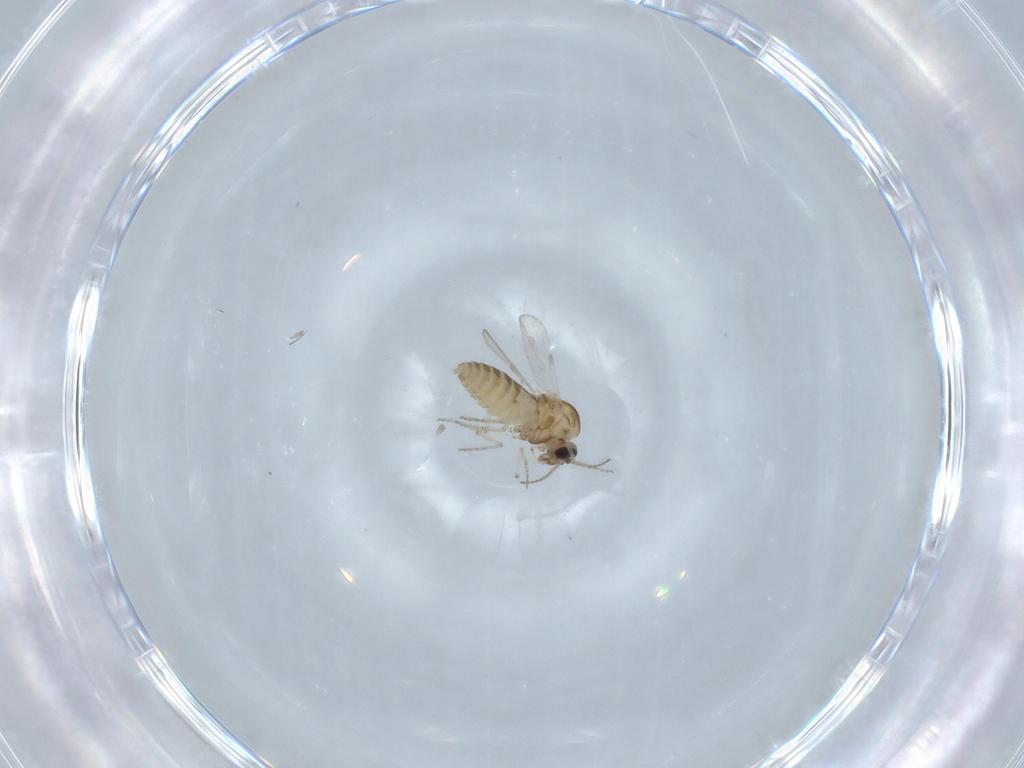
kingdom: Animalia
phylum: Arthropoda
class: Insecta
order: Diptera
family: Ceratopogonidae
